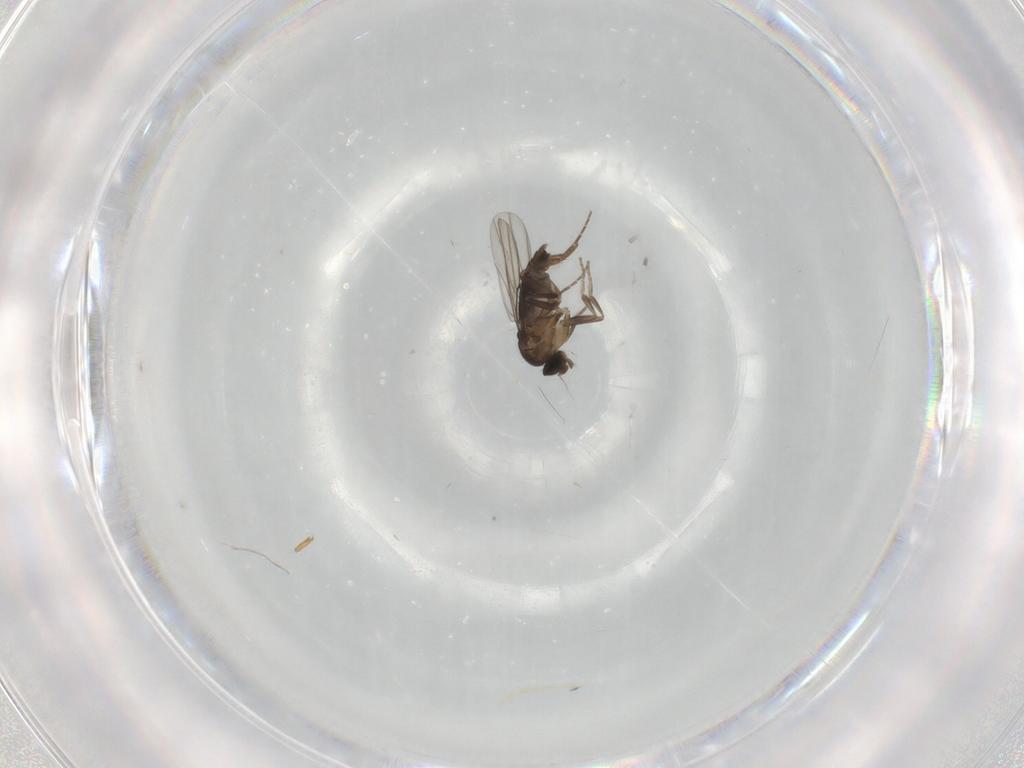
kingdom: Animalia
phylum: Arthropoda
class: Insecta
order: Diptera
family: Phoridae
